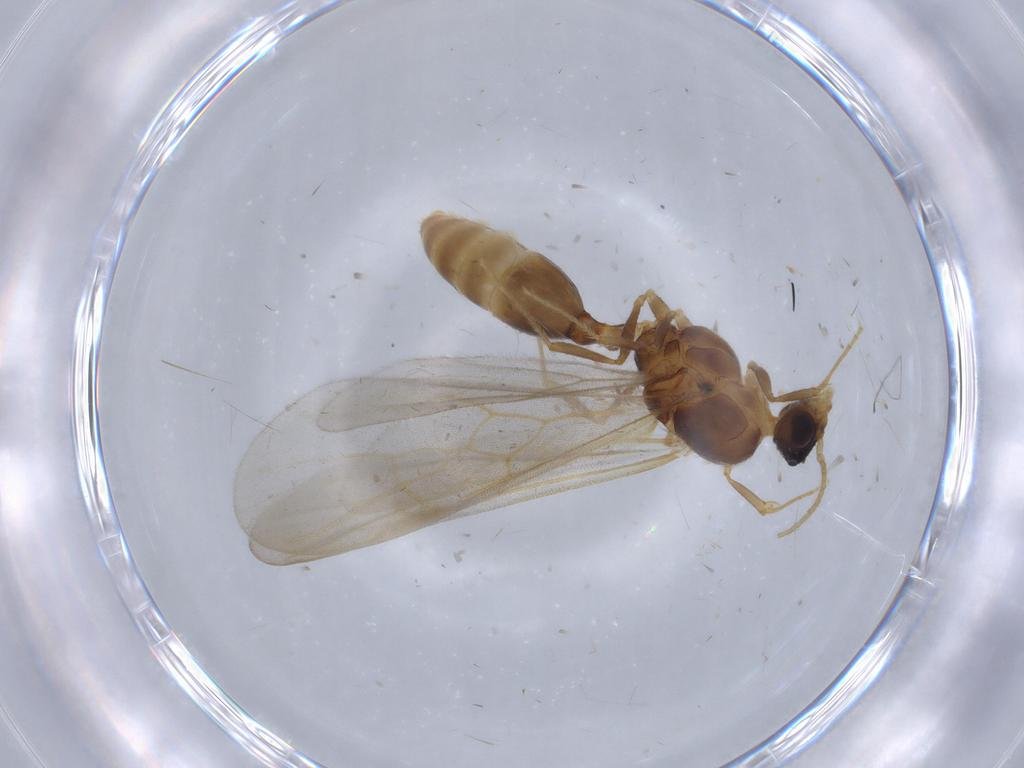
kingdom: Animalia
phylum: Arthropoda
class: Insecta
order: Hymenoptera
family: Formicidae
